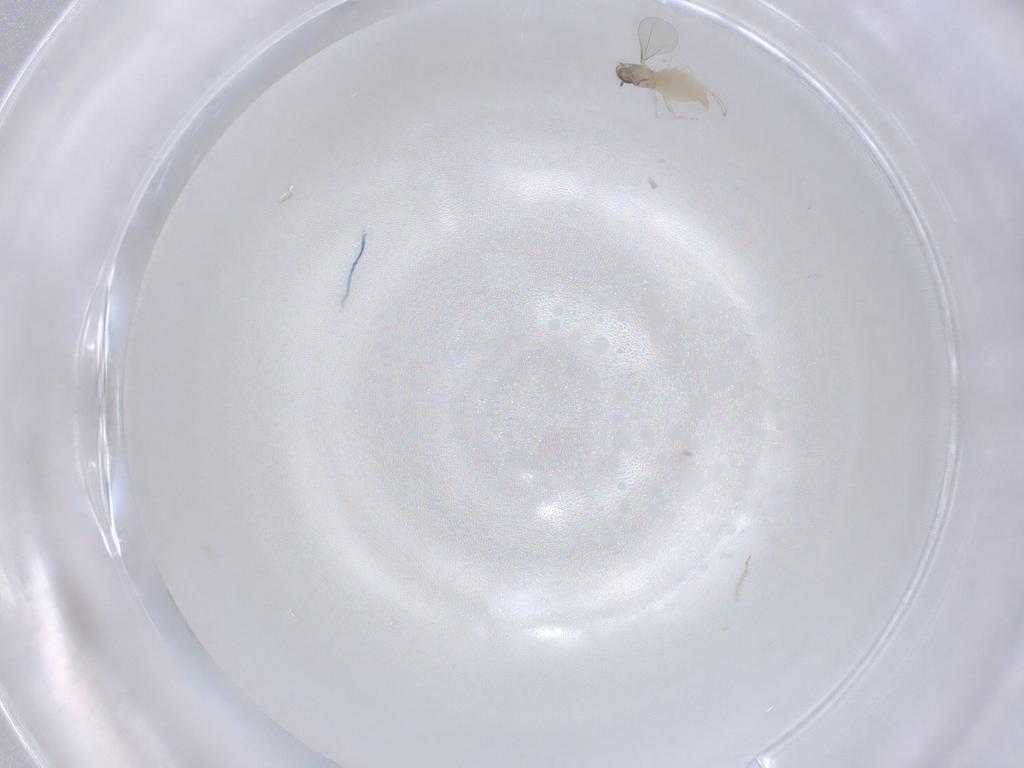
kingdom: Animalia
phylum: Arthropoda
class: Insecta
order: Diptera
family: Cecidomyiidae
